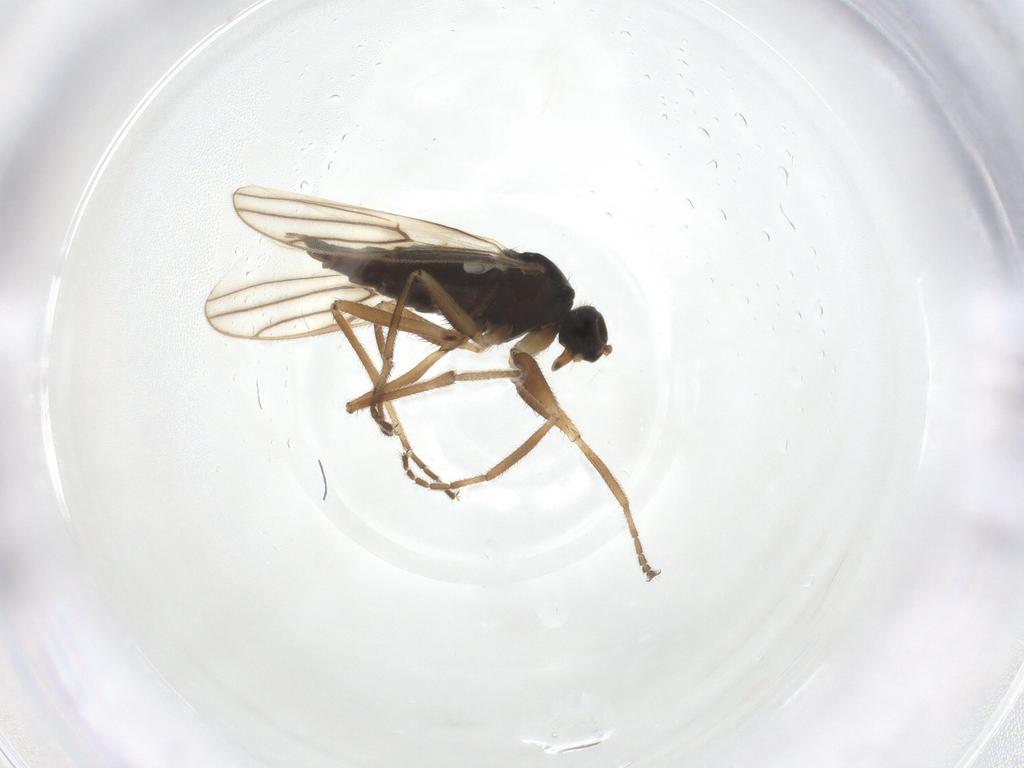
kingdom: Animalia
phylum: Arthropoda
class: Insecta
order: Diptera
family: Hybotidae
